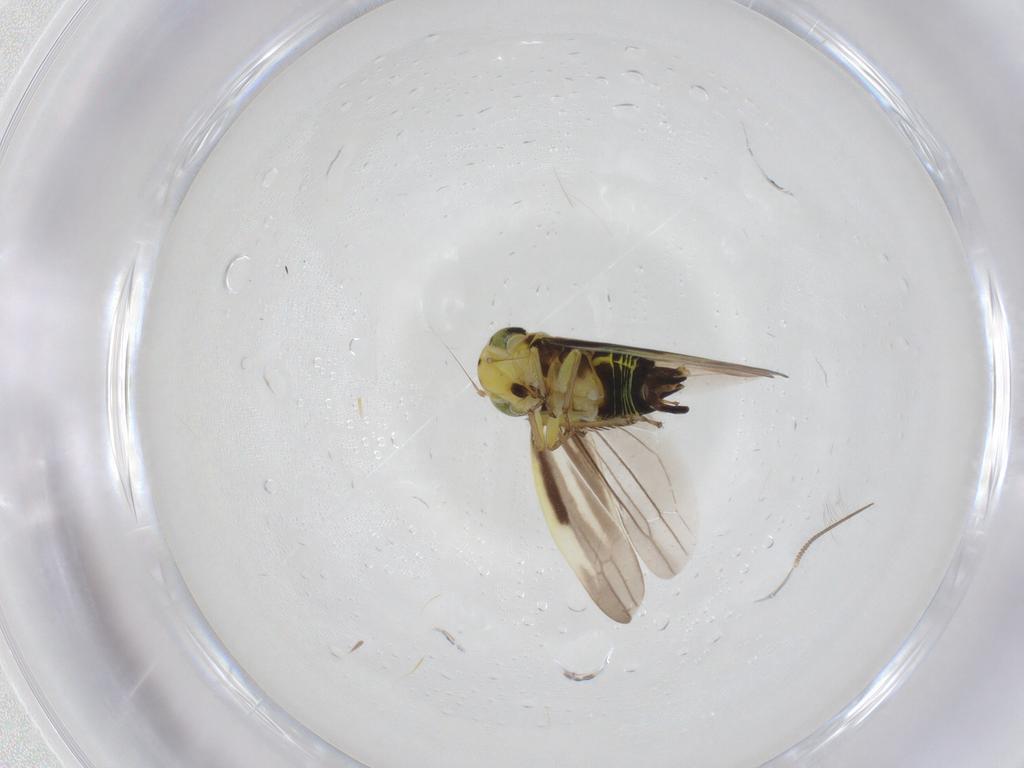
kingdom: Animalia
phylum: Arthropoda
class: Insecta
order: Hemiptera
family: Cicadellidae
